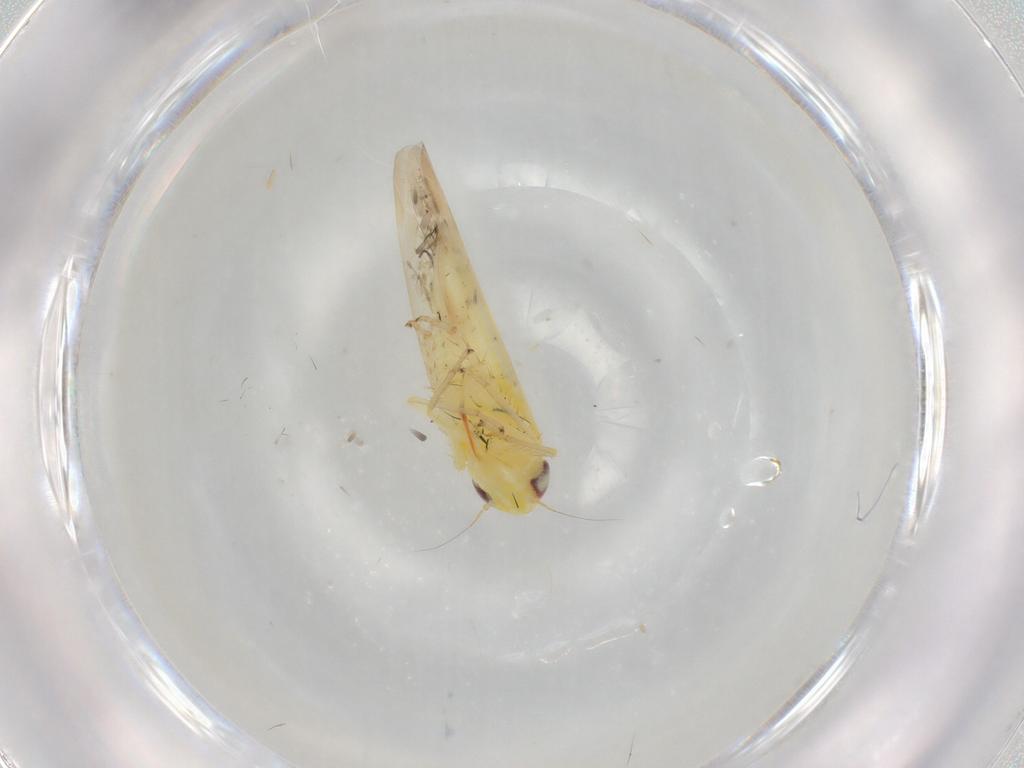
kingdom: Animalia
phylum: Arthropoda
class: Insecta
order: Hemiptera
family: Cicadellidae
